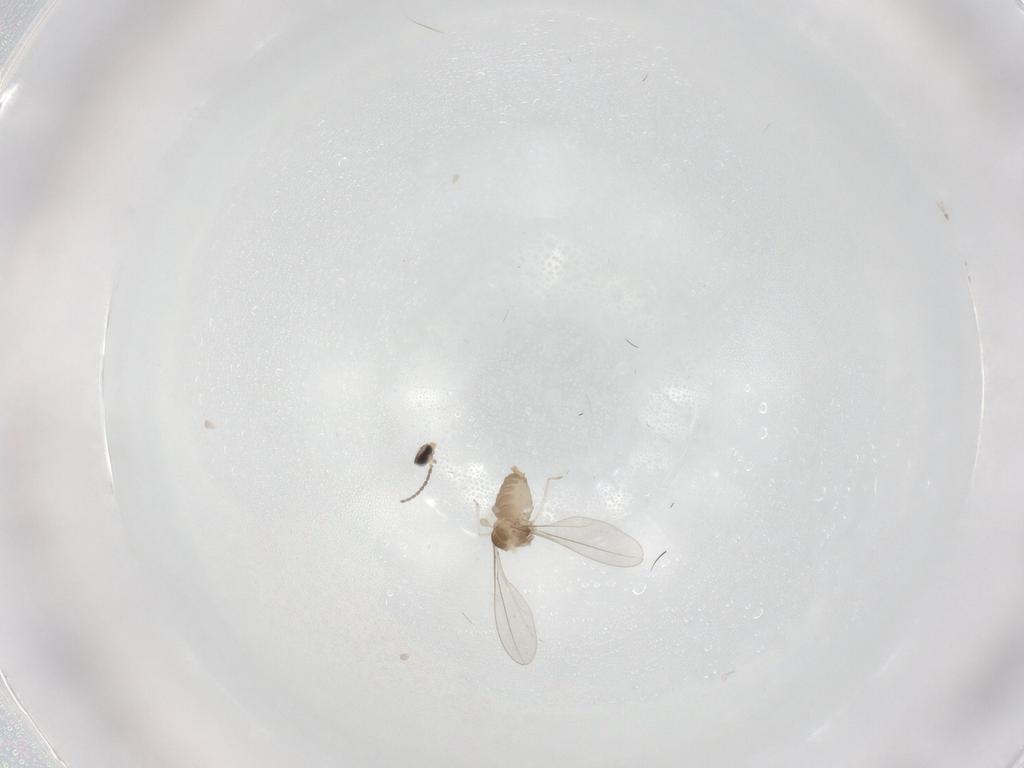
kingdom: Animalia
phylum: Arthropoda
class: Insecta
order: Diptera
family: Cecidomyiidae
